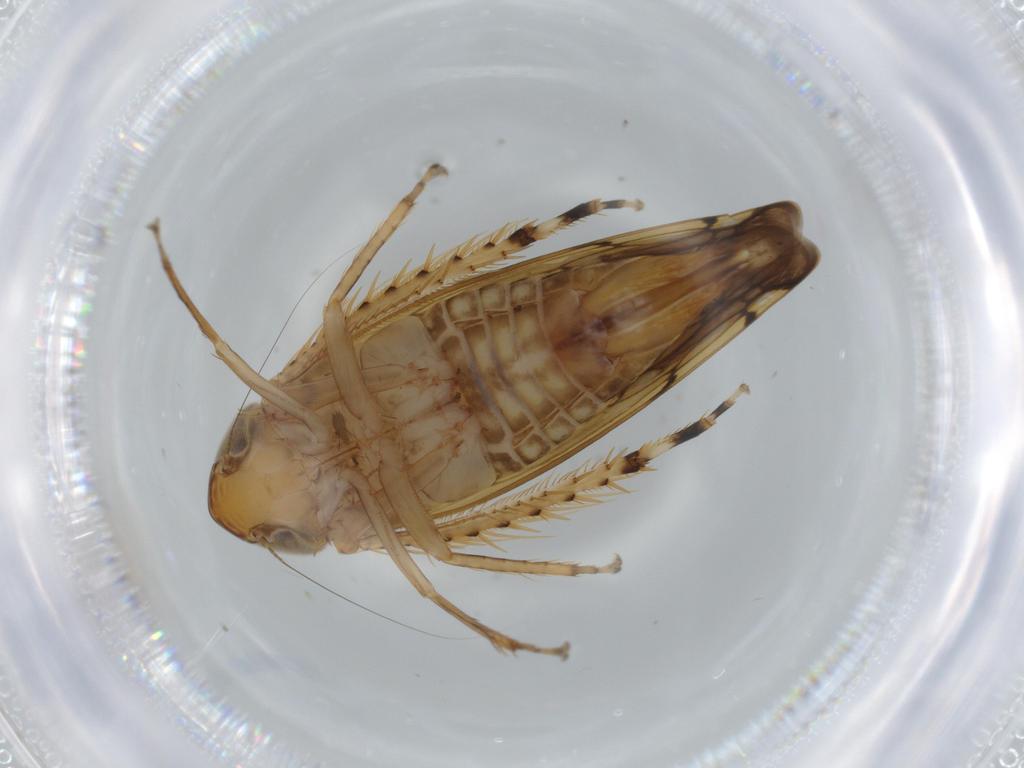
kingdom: Animalia
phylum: Arthropoda
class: Insecta
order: Hemiptera
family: Cicadellidae
